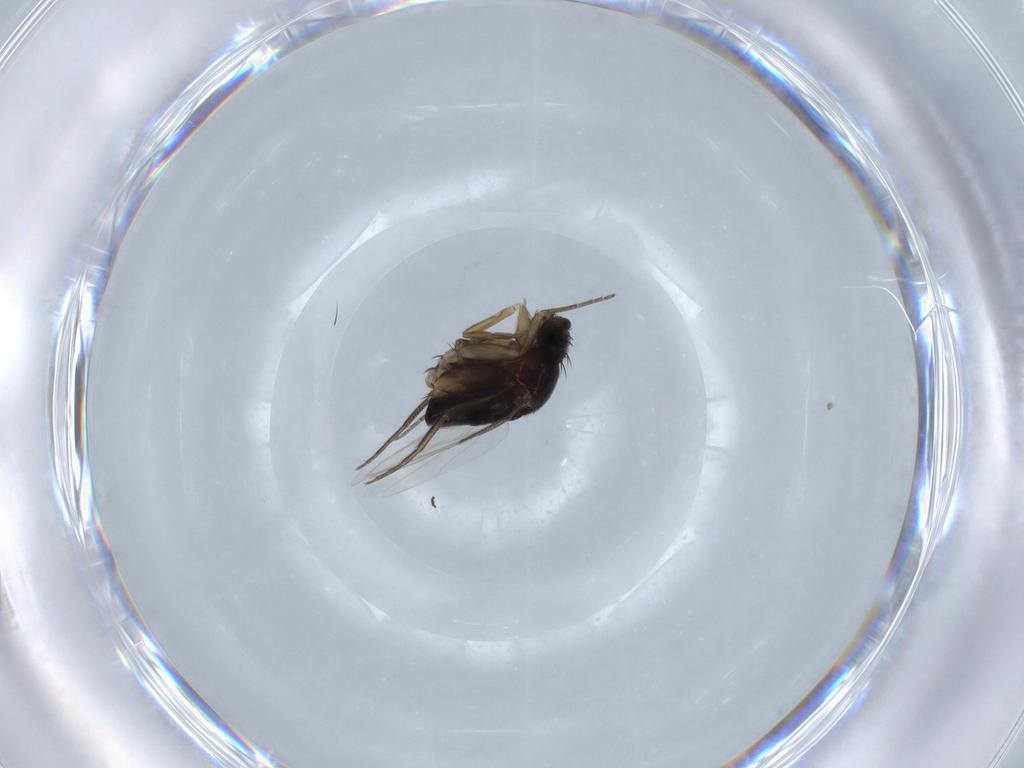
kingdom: Animalia
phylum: Arthropoda
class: Insecta
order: Diptera
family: Phoridae
